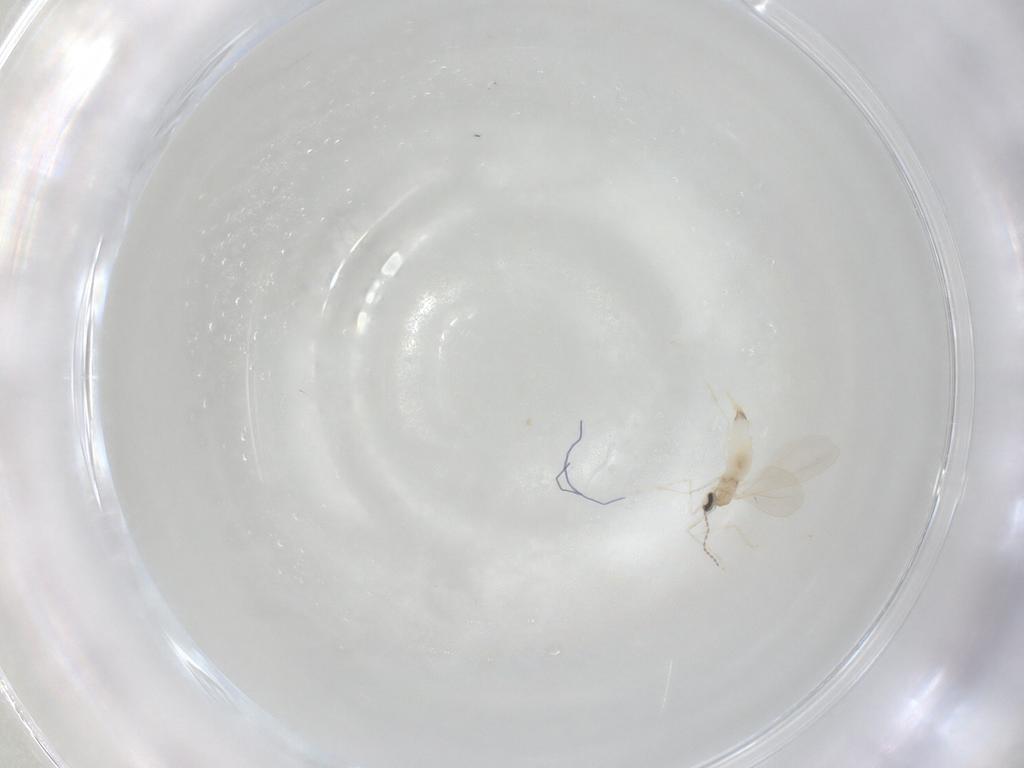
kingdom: Animalia
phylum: Arthropoda
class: Insecta
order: Diptera
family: Cecidomyiidae
